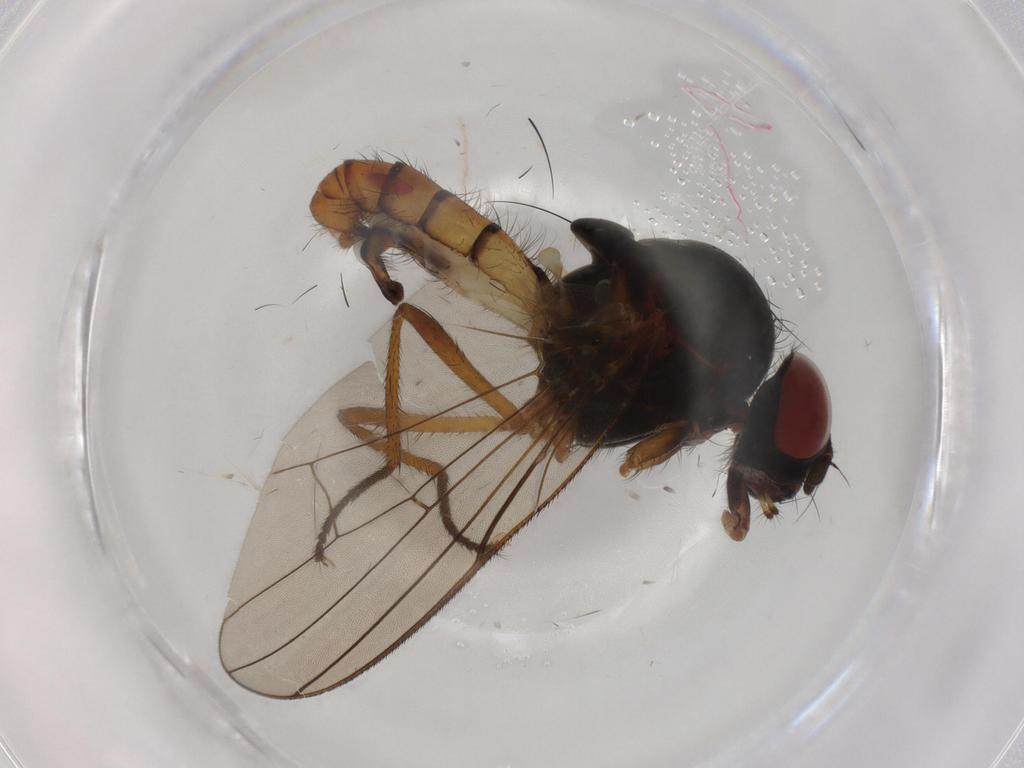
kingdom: Animalia
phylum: Arthropoda
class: Insecta
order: Diptera
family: Anthomyiidae
